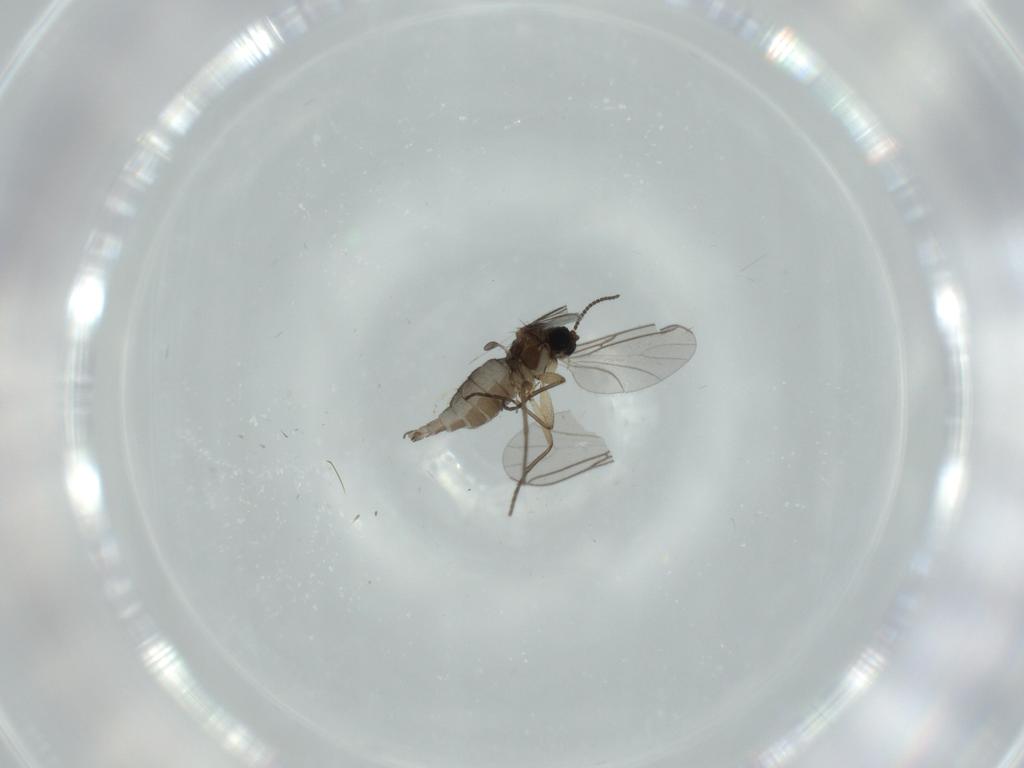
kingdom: Animalia
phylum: Arthropoda
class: Insecta
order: Diptera
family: Sciaridae
